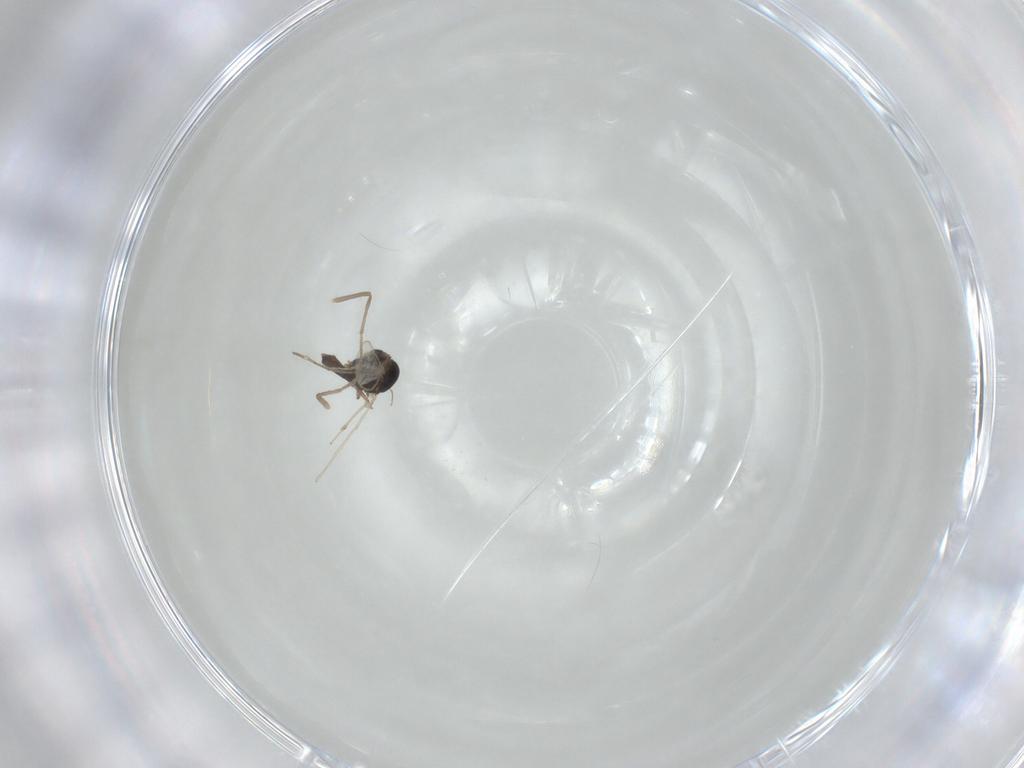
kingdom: Animalia
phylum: Arthropoda
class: Insecta
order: Diptera
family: Chironomidae
